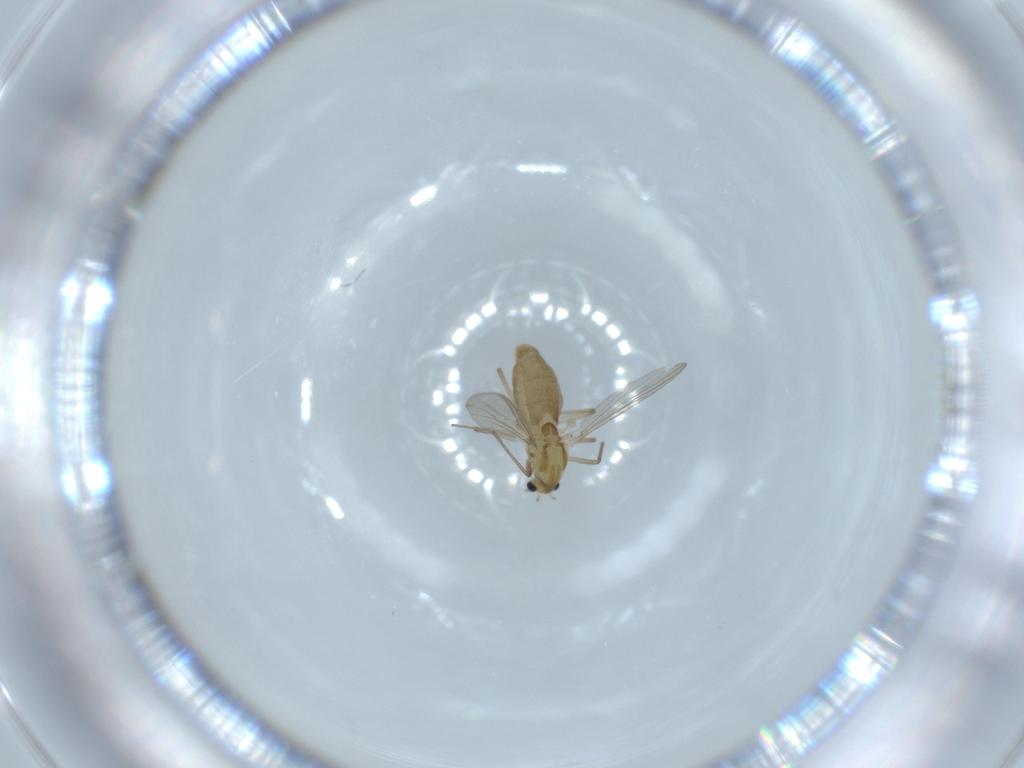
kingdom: Animalia
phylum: Arthropoda
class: Insecta
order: Diptera
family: Chironomidae
